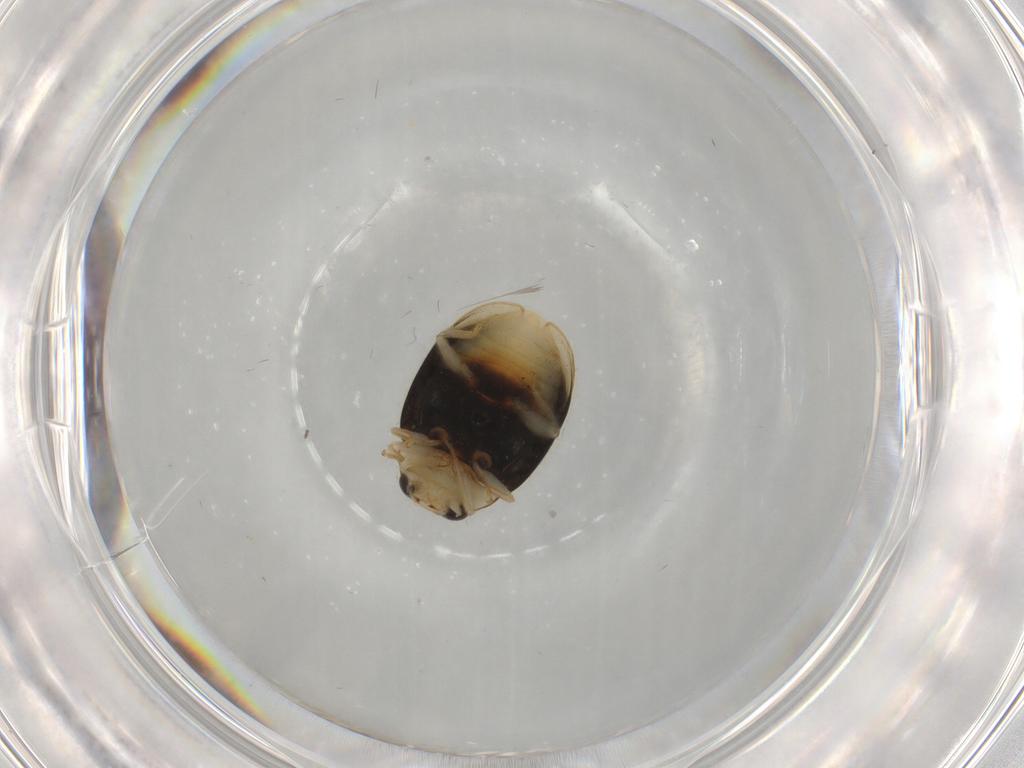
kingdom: Animalia
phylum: Arthropoda
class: Insecta
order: Coleoptera
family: Coccinellidae
